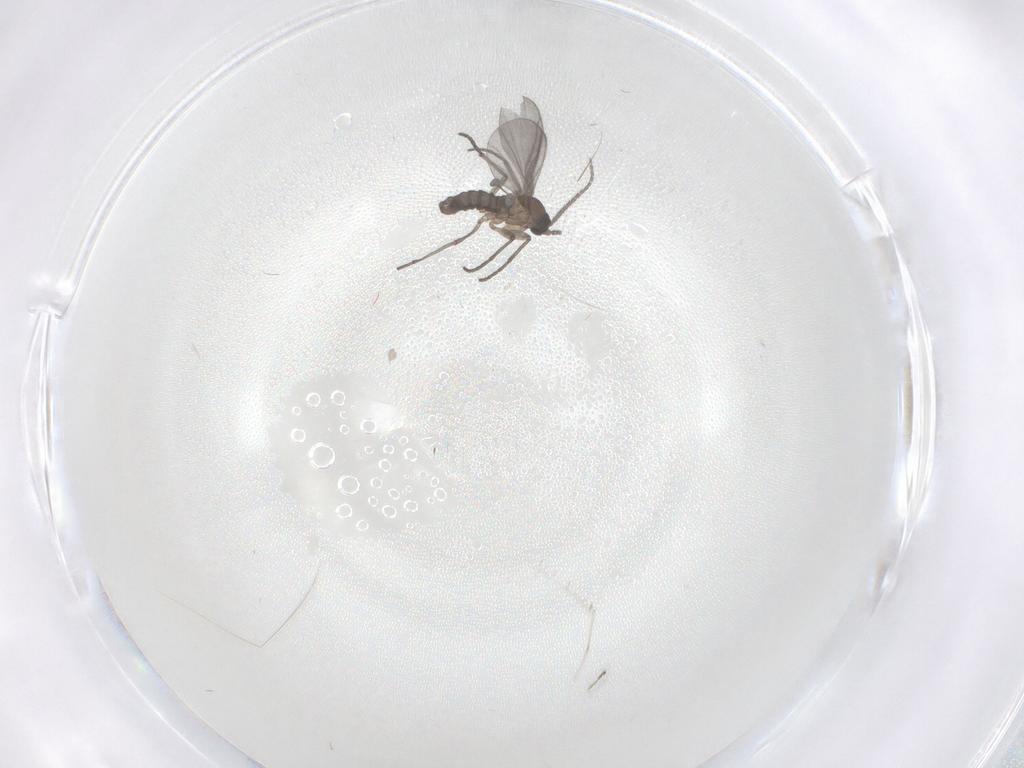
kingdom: Animalia
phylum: Arthropoda
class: Insecta
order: Diptera
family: Sciaridae
